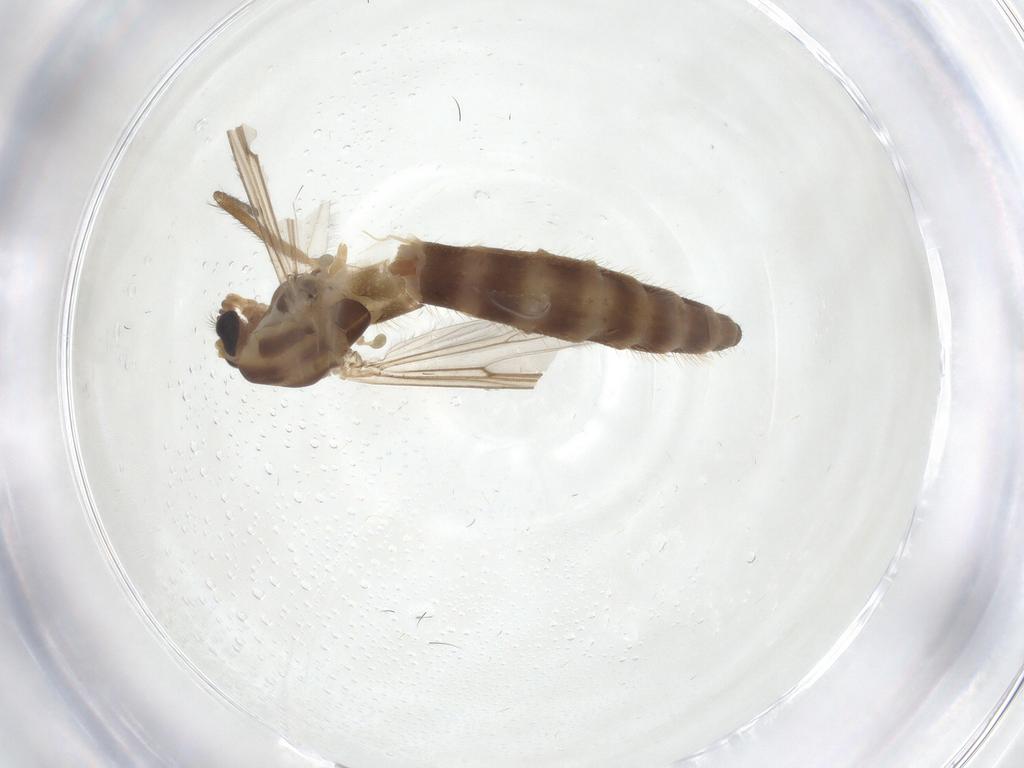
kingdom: Animalia
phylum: Arthropoda
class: Insecta
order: Diptera
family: Chironomidae
